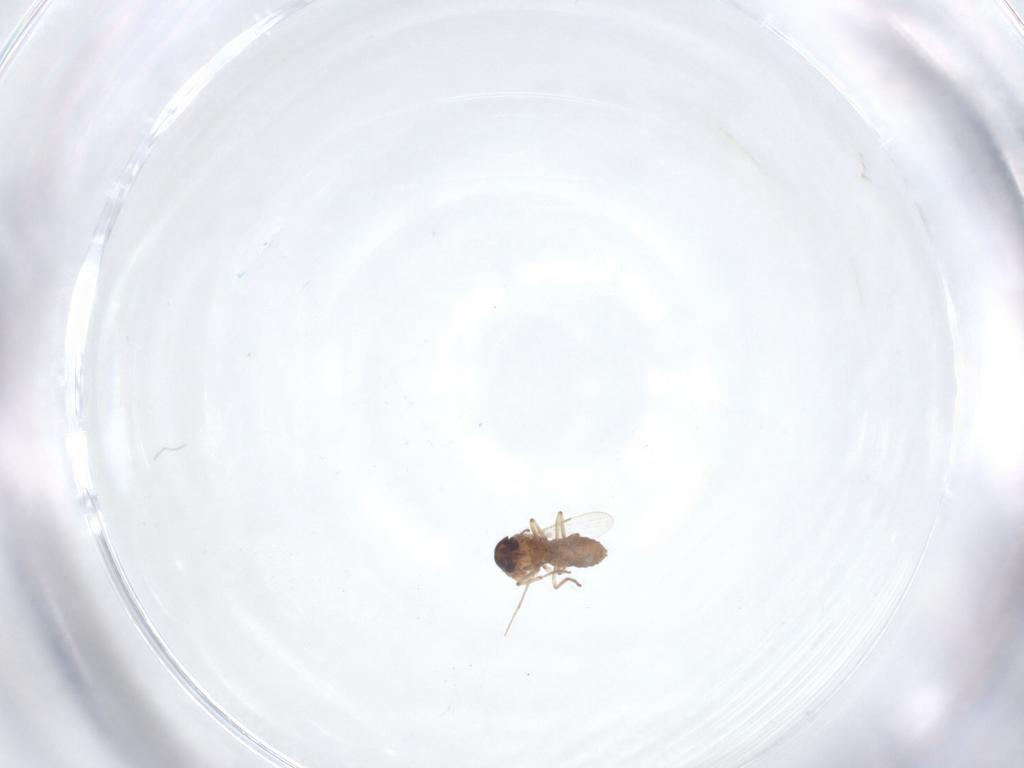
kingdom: Animalia
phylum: Arthropoda
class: Insecta
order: Diptera
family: Ceratopogonidae
